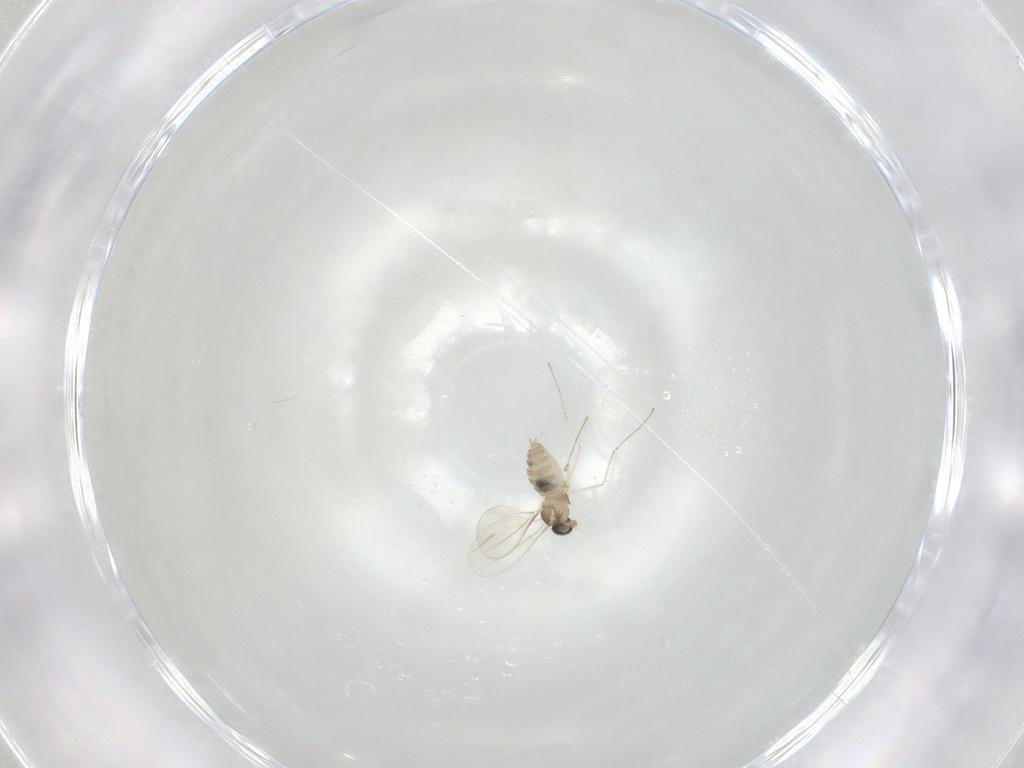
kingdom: Animalia
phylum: Arthropoda
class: Insecta
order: Diptera
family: Cecidomyiidae
